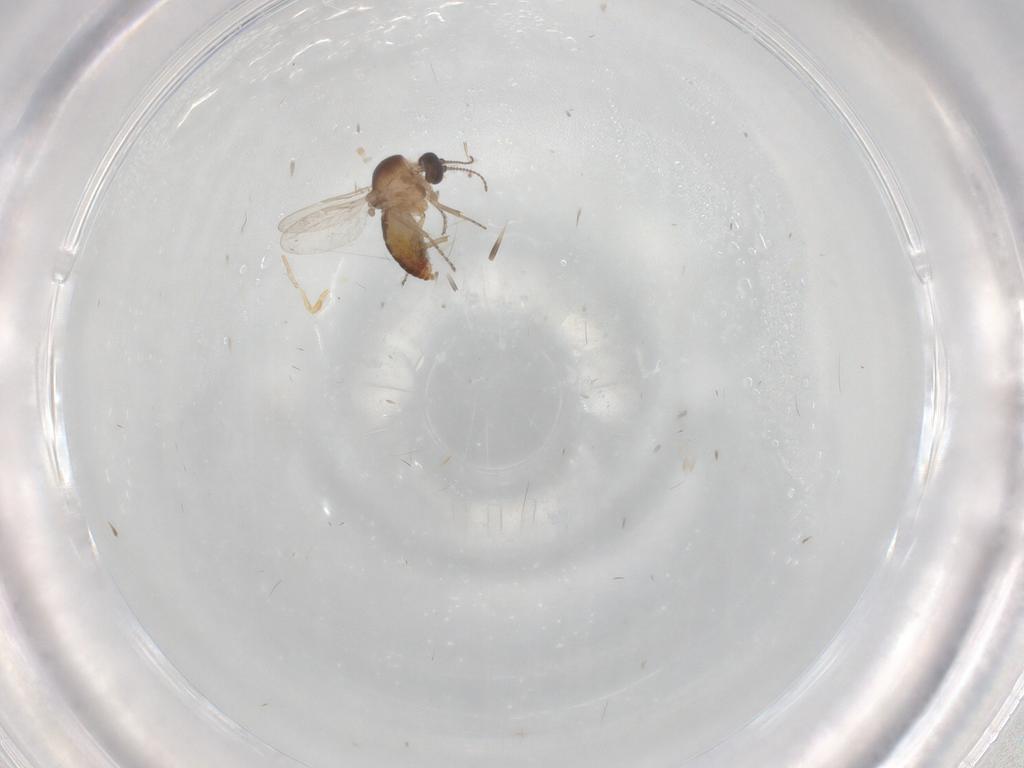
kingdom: Animalia
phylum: Arthropoda
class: Insecta
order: Diptera
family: Ceratopogonidae
